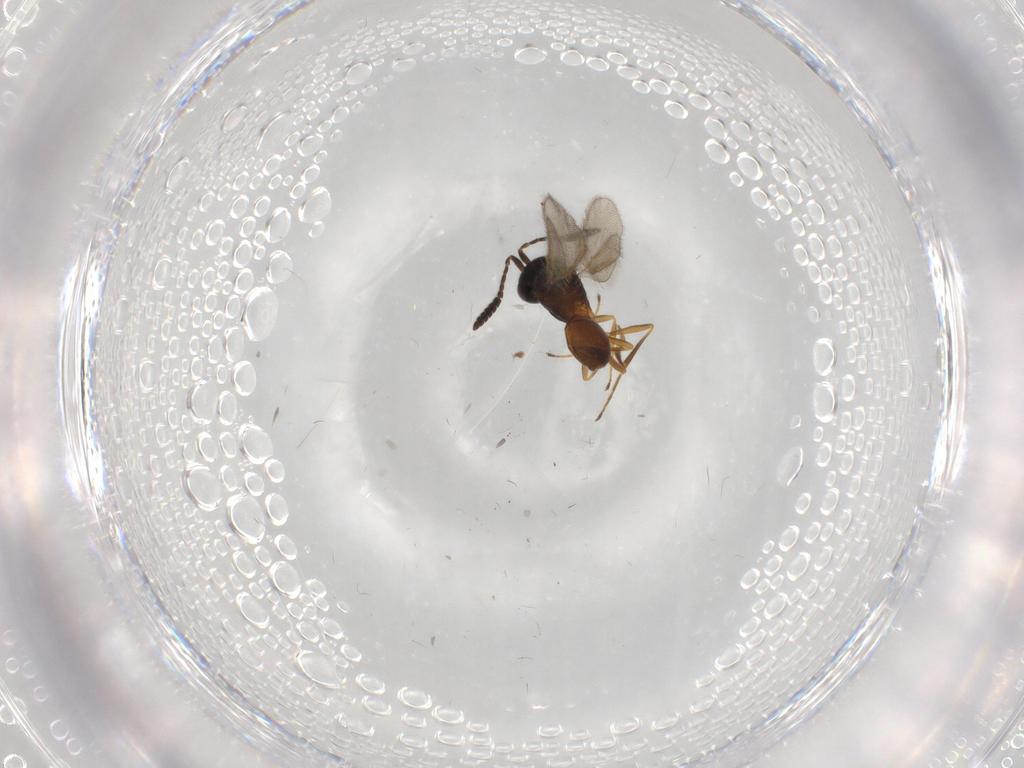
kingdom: Animalia
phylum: Arthropoda
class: Insecta
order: Hymenoptera
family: Scelionidae
